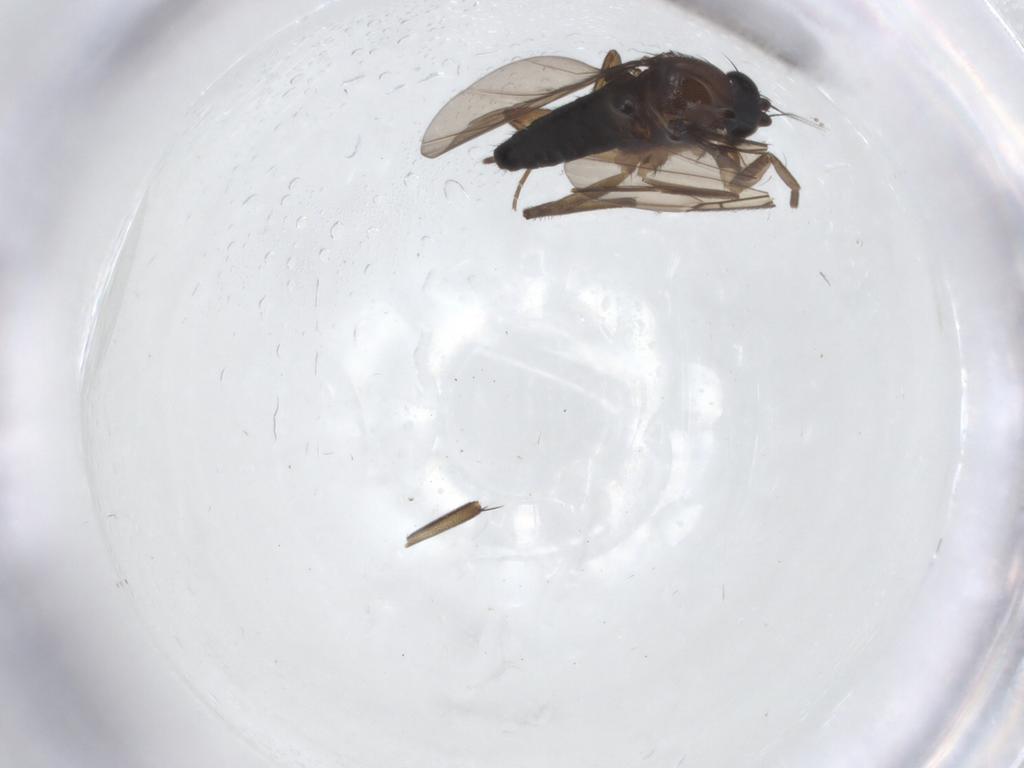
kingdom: Animalia
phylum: Arthropoda
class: Insecta
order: Diptera
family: Phoridae
